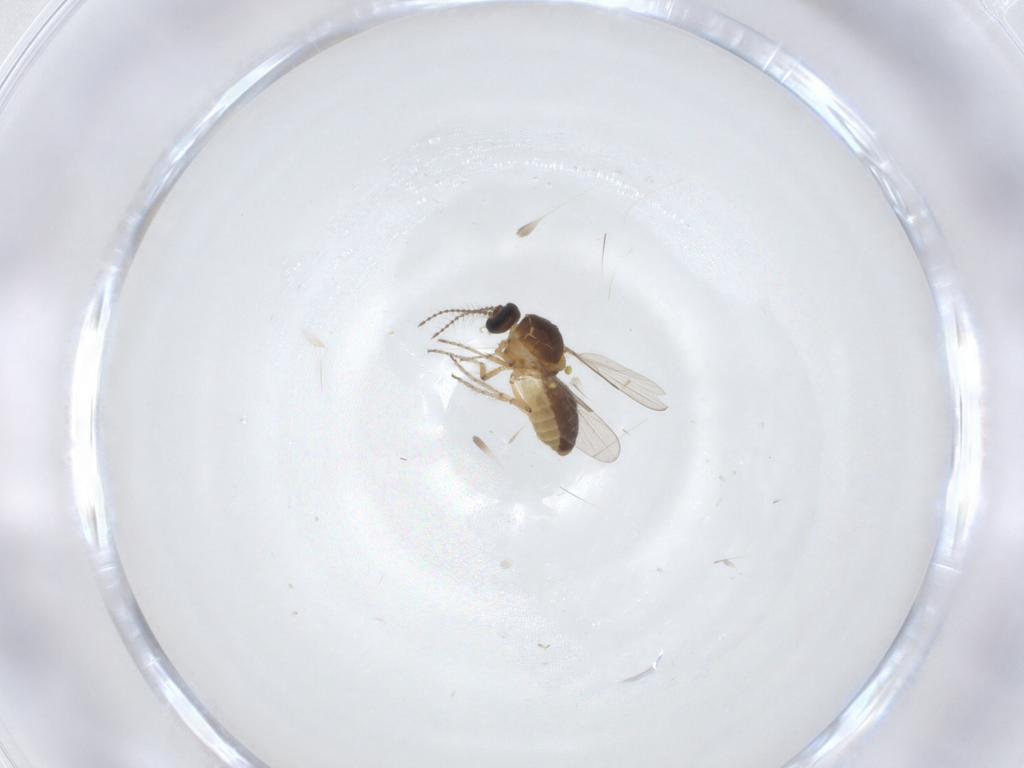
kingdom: Animalia
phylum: Arthropoda
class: Insecta
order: Diptera
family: Ceratopogonidae
